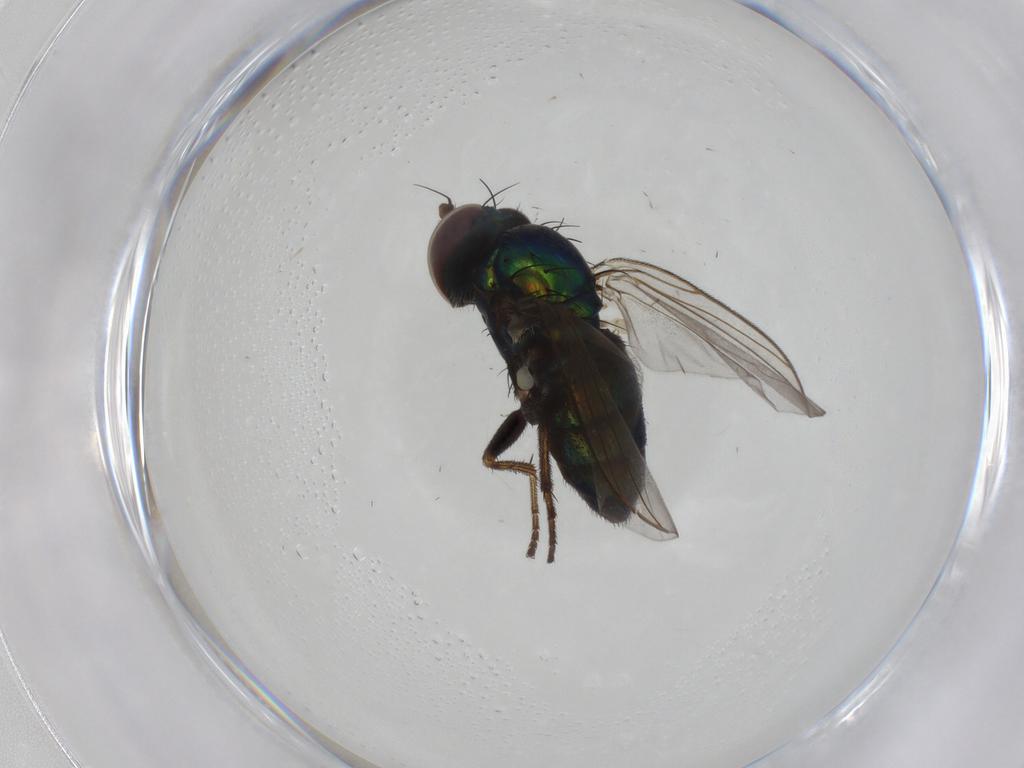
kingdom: Animalia
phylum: Arthropoda
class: Insecta
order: Diptera
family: Dolichopodidae
